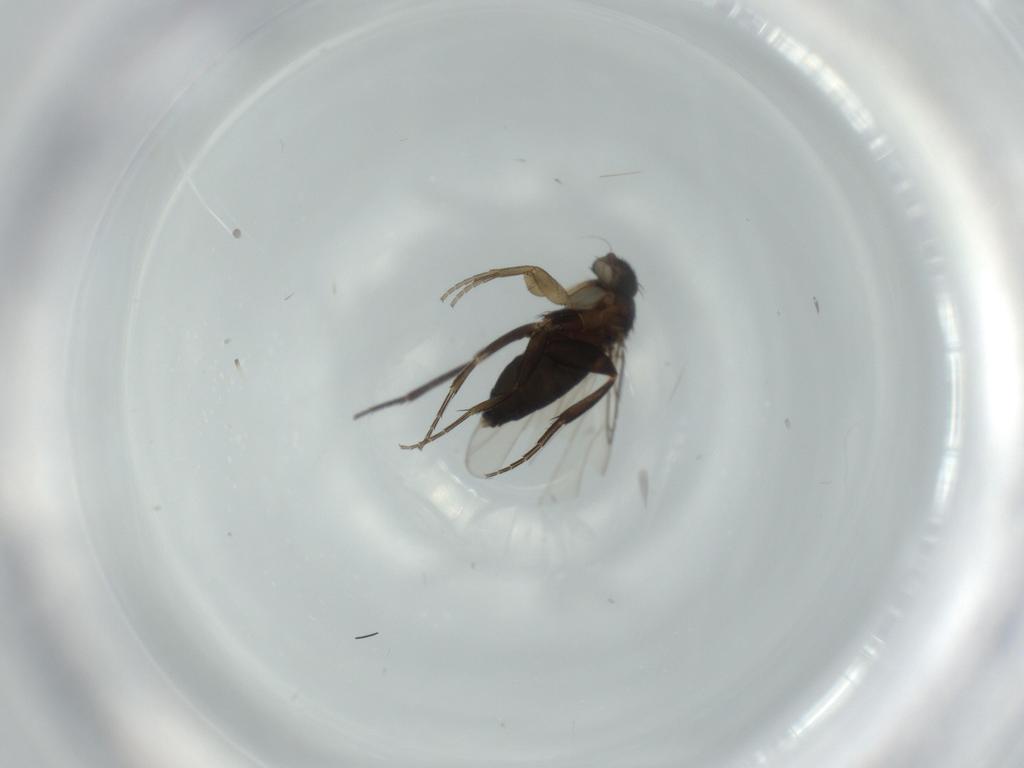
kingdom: Animalia
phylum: Arthropoda
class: Insecta
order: Diptera
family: Phoridae
